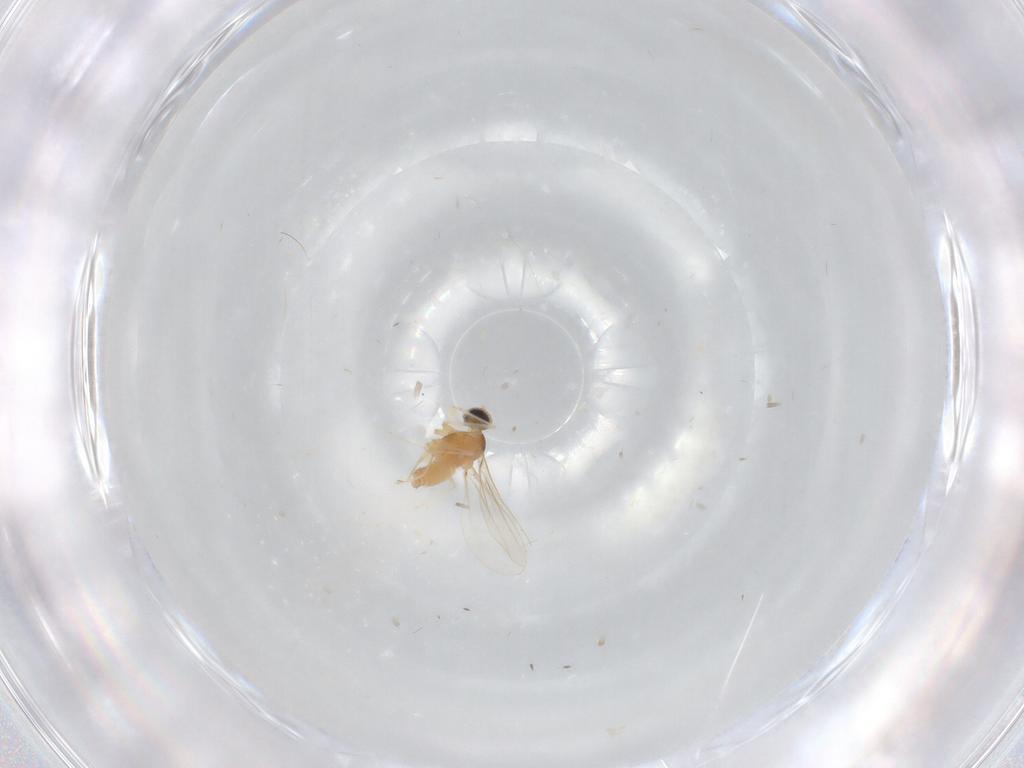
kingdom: Animalia
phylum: Arthropoda
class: Insecta
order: Diptera
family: Cecidomyiidae
